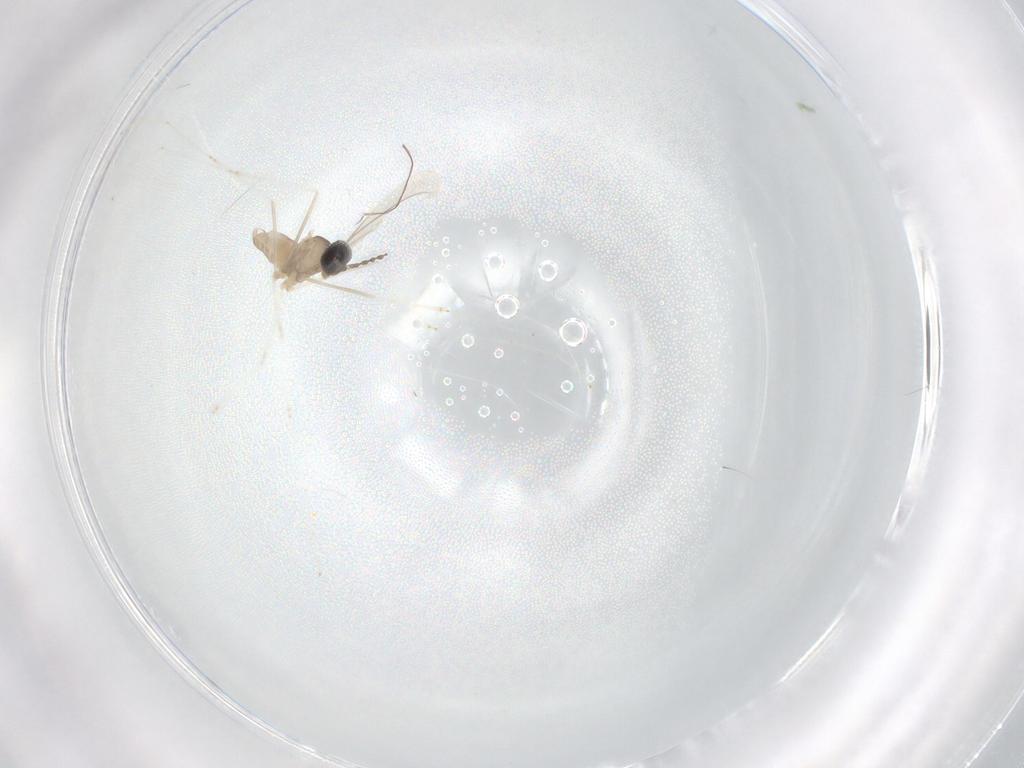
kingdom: Animalia
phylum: Arthropoda
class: Insecta
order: Diptera
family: Cecidomyiidae
